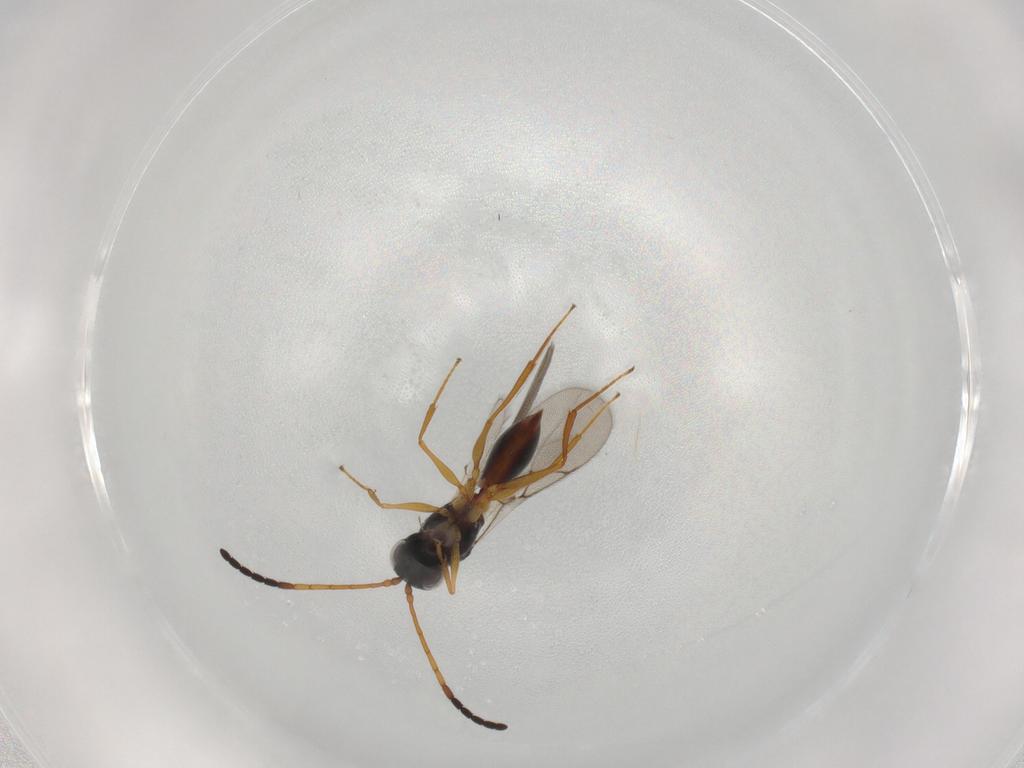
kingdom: Animalia
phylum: Arthropoda
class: Insecta
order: Hymenoptera
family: Figitidae
